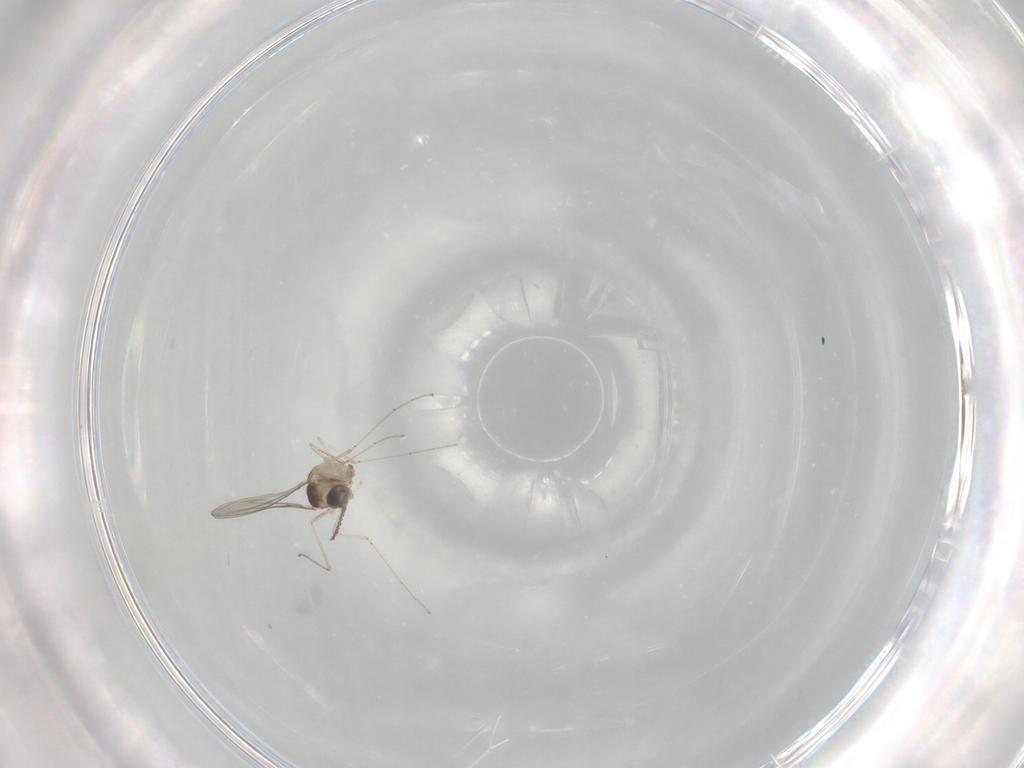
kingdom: Animalia
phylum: Arthropoda
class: Insecta
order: Diptera
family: Cecidomyiidae
